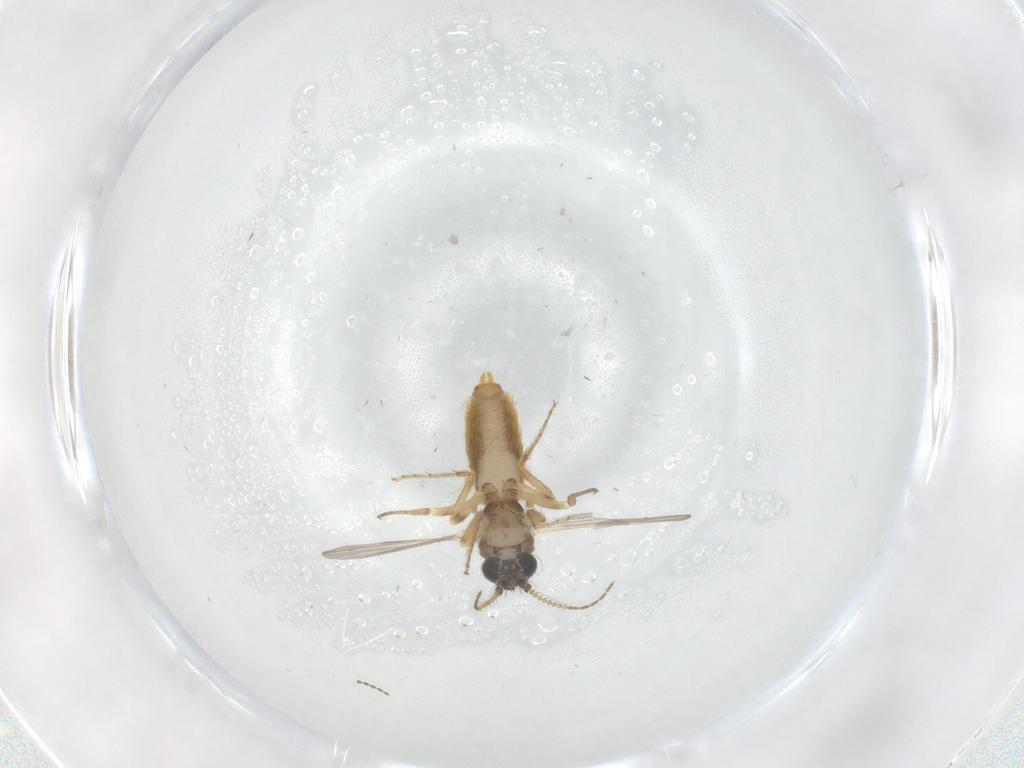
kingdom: Animalia
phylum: Arthropoda
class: Insecta
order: Diptera
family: Ceratopogonidae
